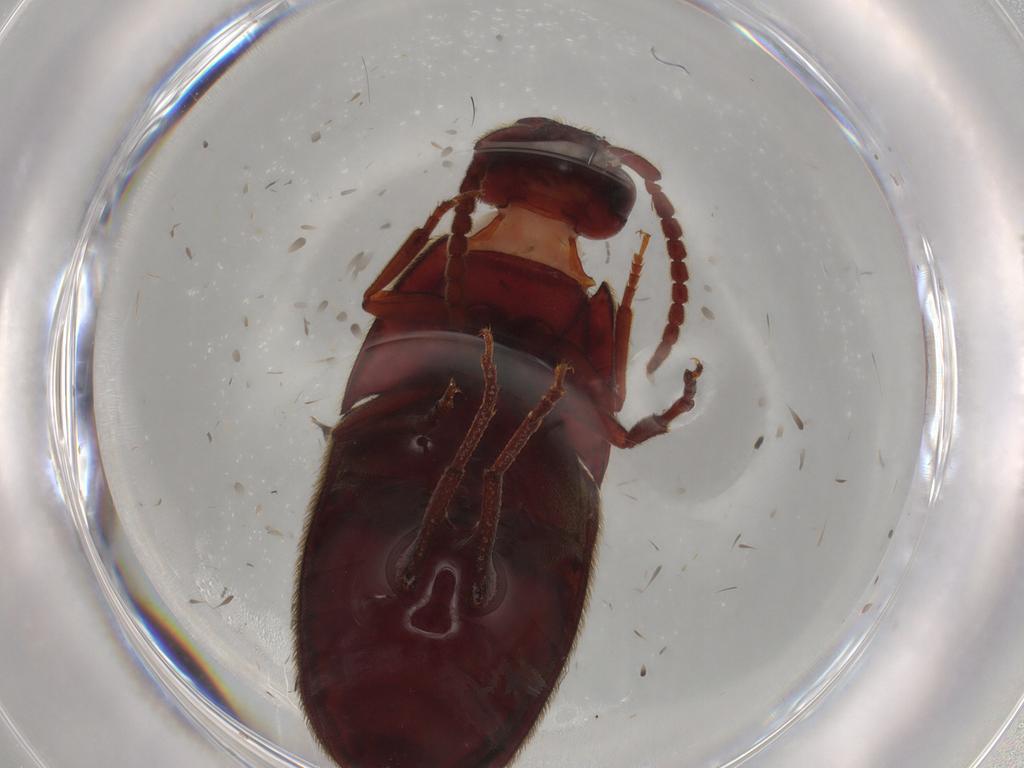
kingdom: Animalia
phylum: Arthropoda
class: Insecta
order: Coleoptera
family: Eucnemidae
